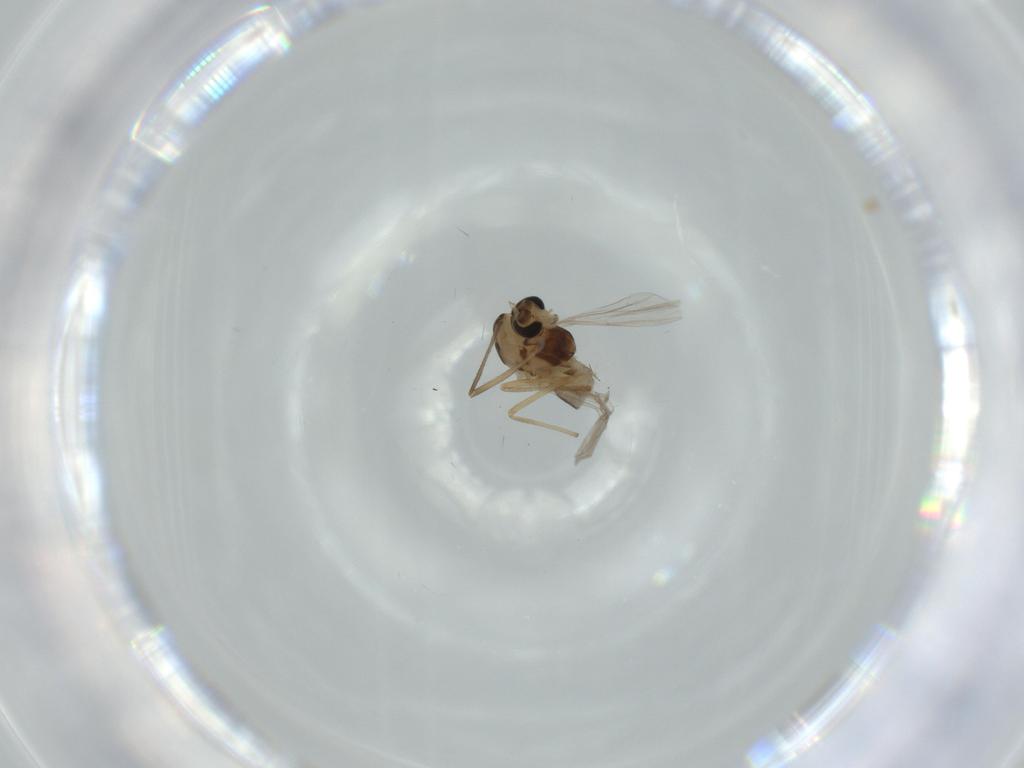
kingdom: Animalia
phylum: Arthropoda
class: Insecta
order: Diptera
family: Chironomidae
